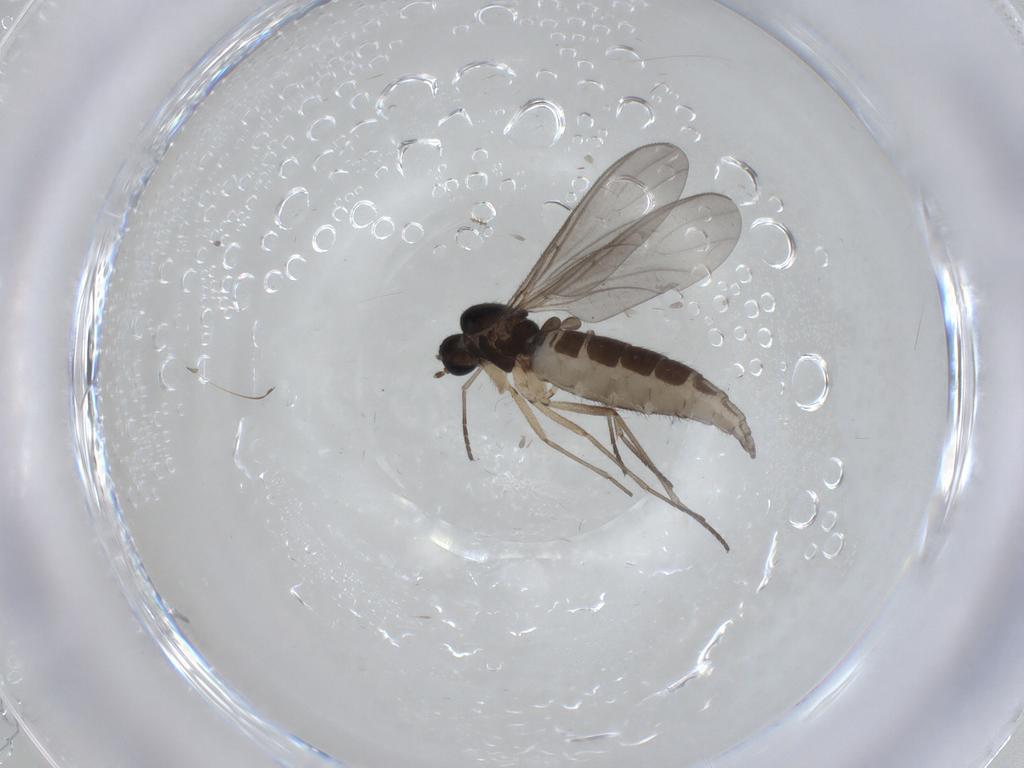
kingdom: Animalia
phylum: Arthropoda
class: Insecta
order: Diptera
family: Sciaridae
